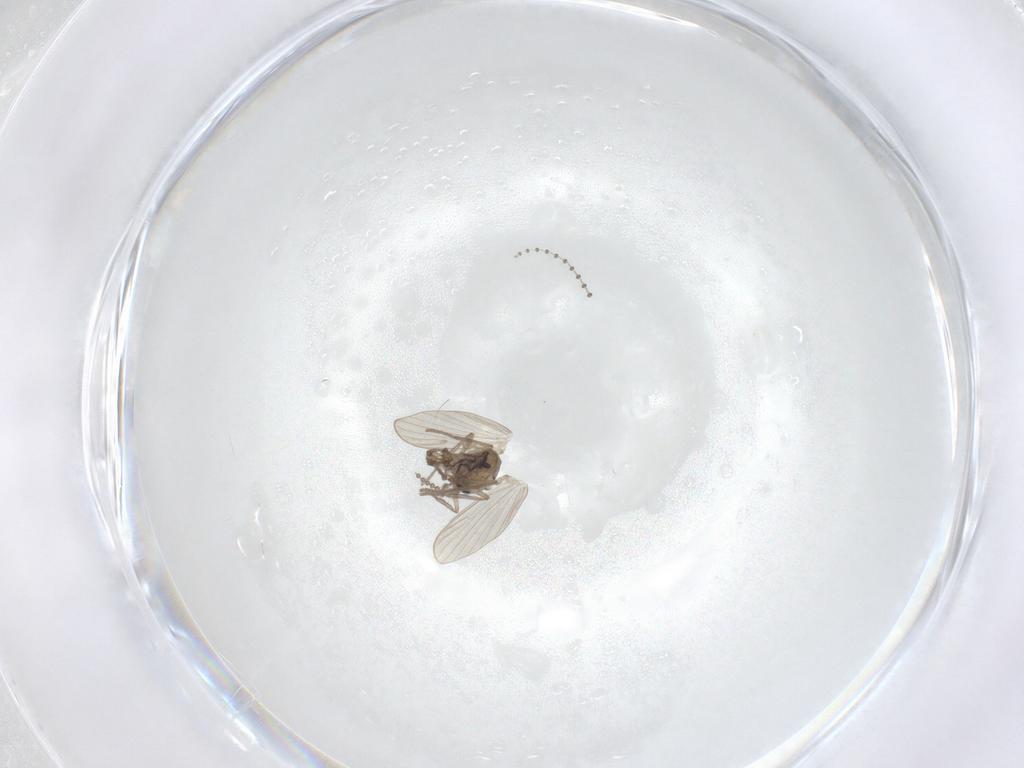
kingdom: Animalia
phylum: Arthropoda
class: Insecta
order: Diptera
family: Psychodidae
